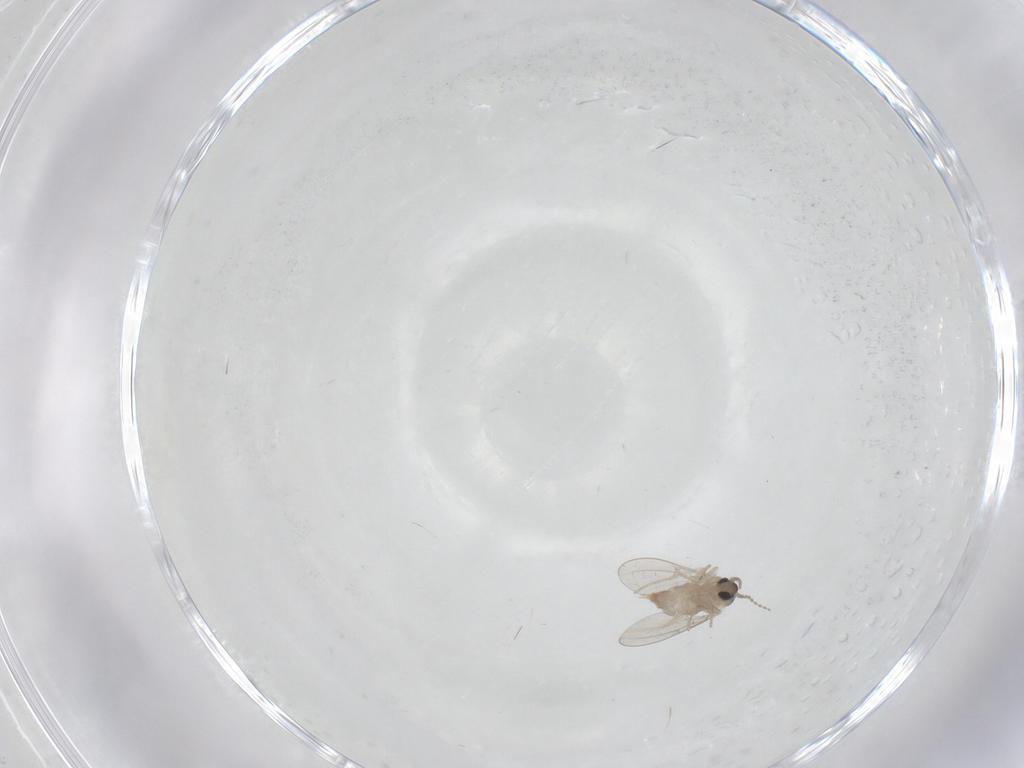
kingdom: Animalia
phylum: Arthropoda
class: Insecta
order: Diptera
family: Cecidomyiidae
